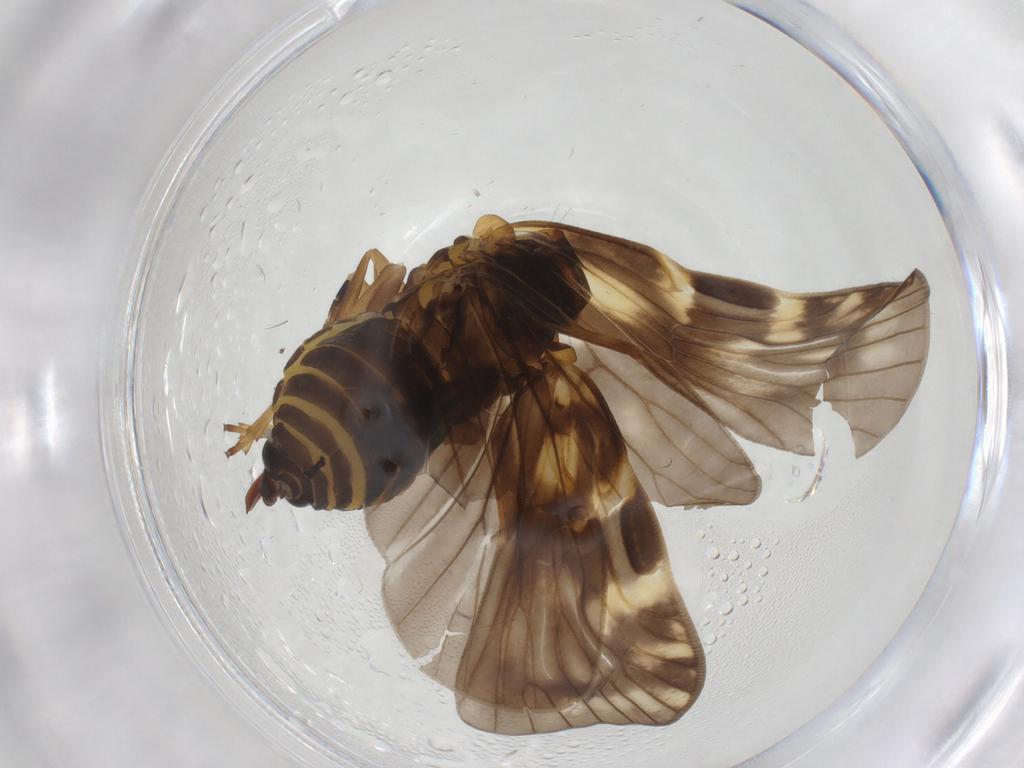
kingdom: Animalia
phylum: Arthropoda
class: Insecta
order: Hemiptera
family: Cixiidae
